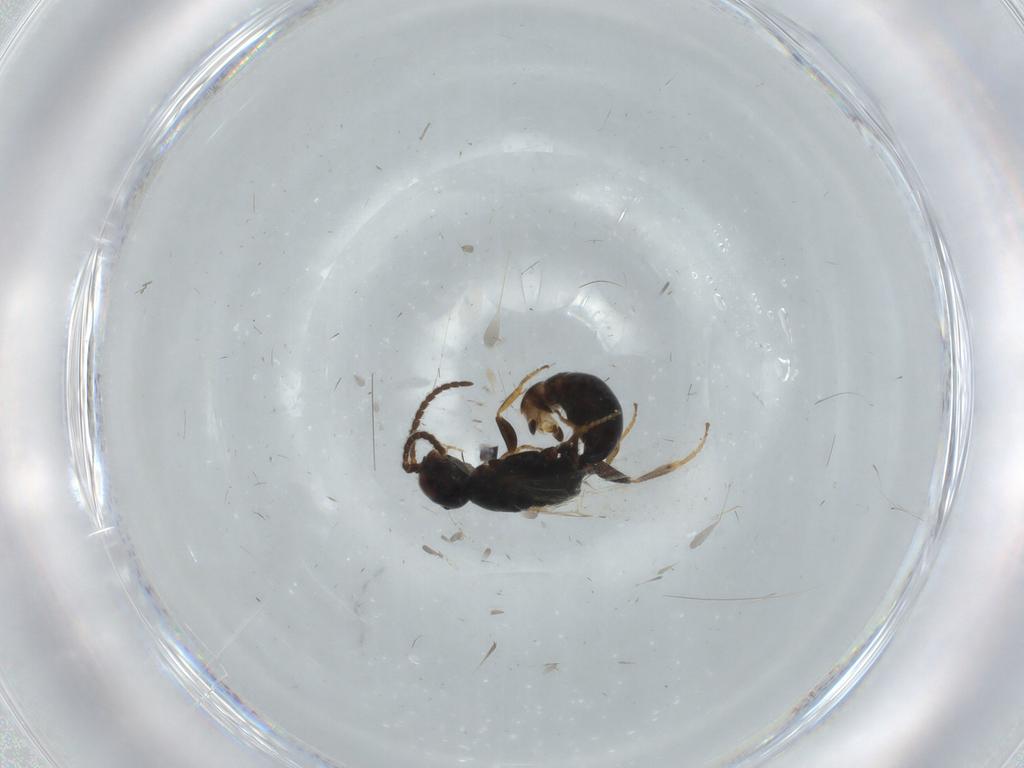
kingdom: Animalia
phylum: Arthropoda
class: Insecta
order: Hymenoptera
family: Bethylidae
